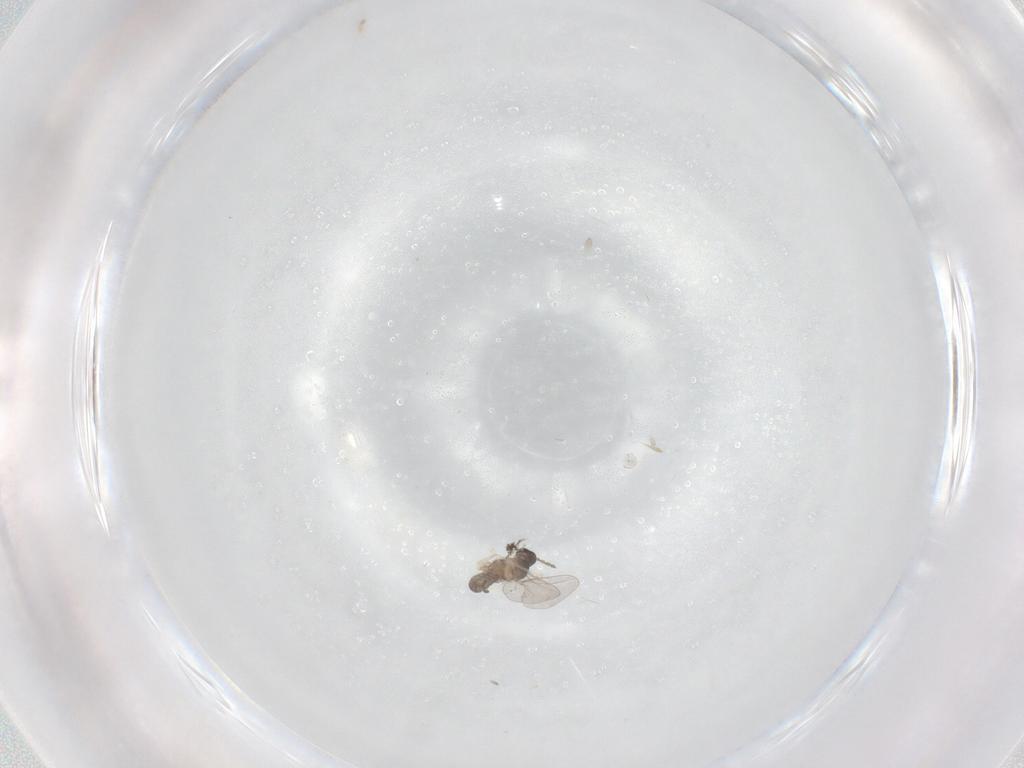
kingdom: Animalia
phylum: Arthropoda
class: Insecta
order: Diptera
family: Cecidomyiidae
